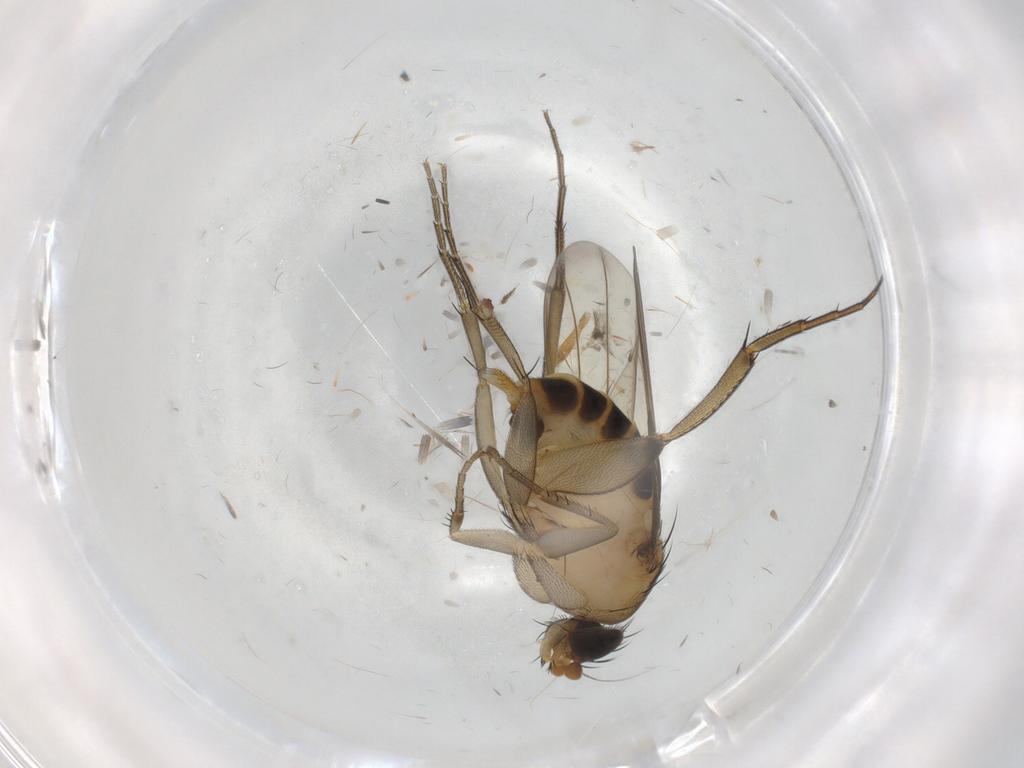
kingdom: Animalia
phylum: Arthropoda
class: Insecta
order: Diptera
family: Phoridae
